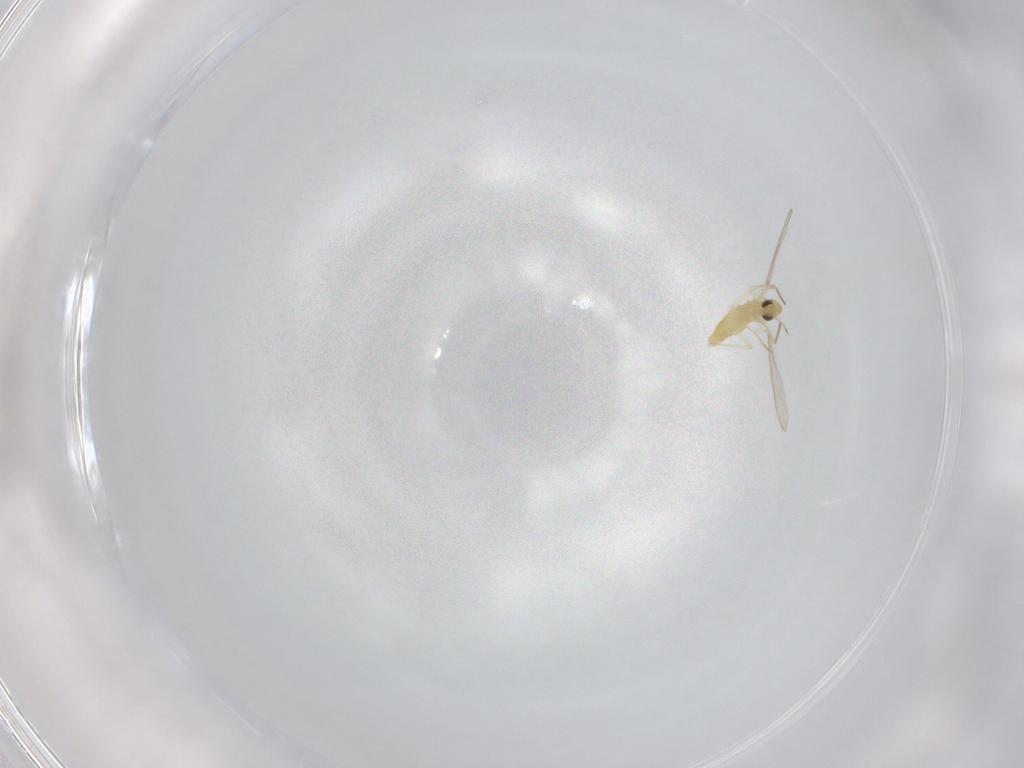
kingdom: Animalia
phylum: Arthropoda
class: Insecta
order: Diptera
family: Chironomidae
